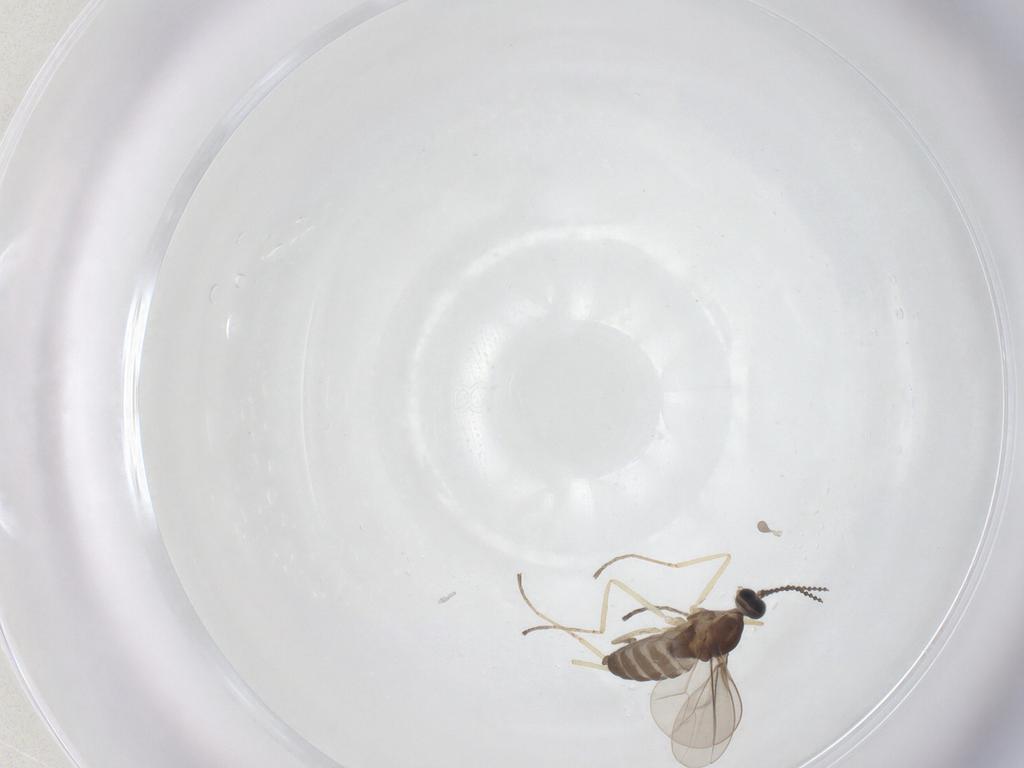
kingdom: Animalia
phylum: Arthropoda
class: Insecta
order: Diptera
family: Cecidomyiidae
